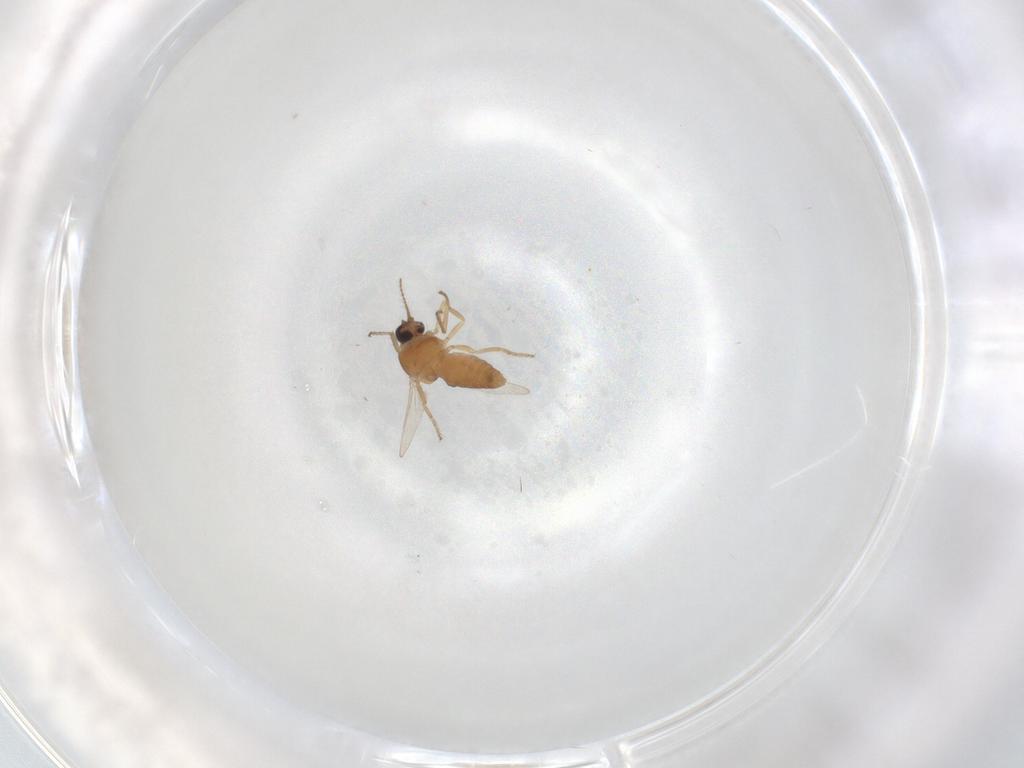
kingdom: Animalia
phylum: Arthropoda
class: Insecta
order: Diptera
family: Ceratopogonidae
